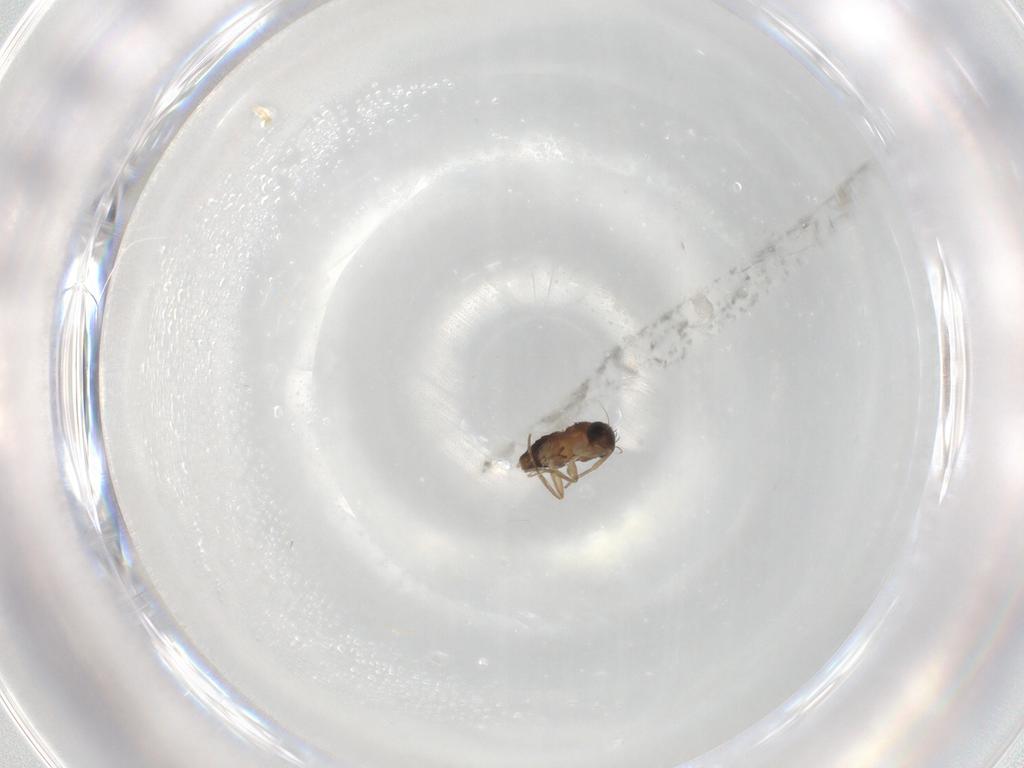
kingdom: Animalia
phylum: Arthropoda
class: Insecta
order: Diptera
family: Phoridae
